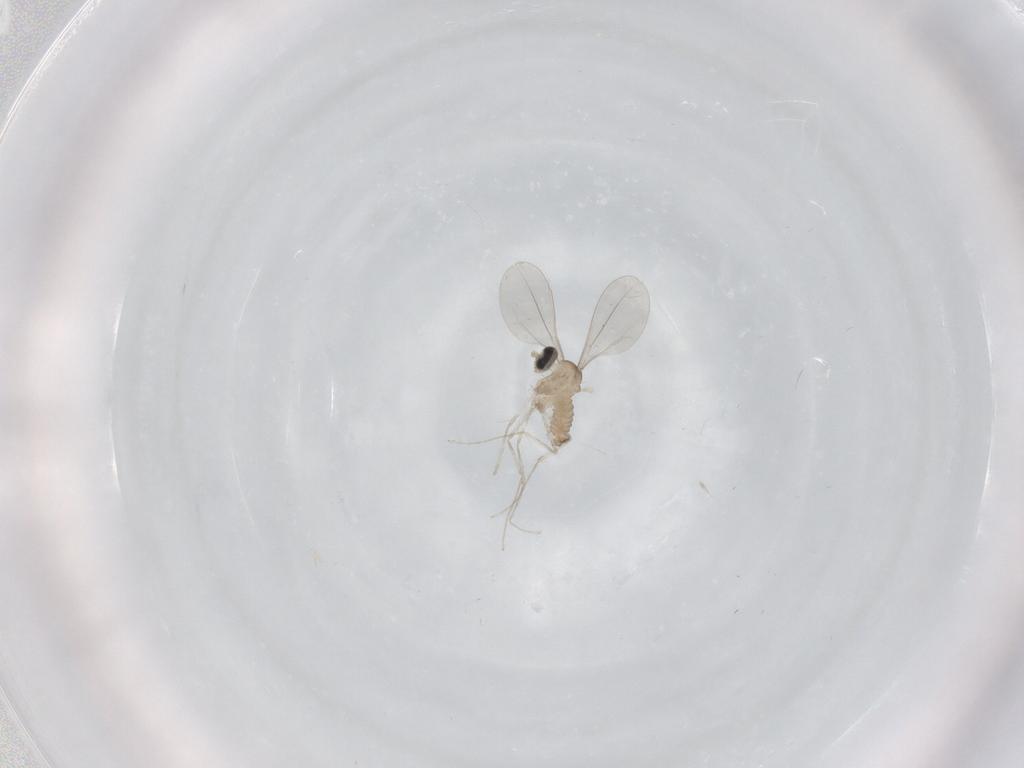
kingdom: Animalia
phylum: Arthropoda
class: Insecta
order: Diptera
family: Cecidomyiidae
